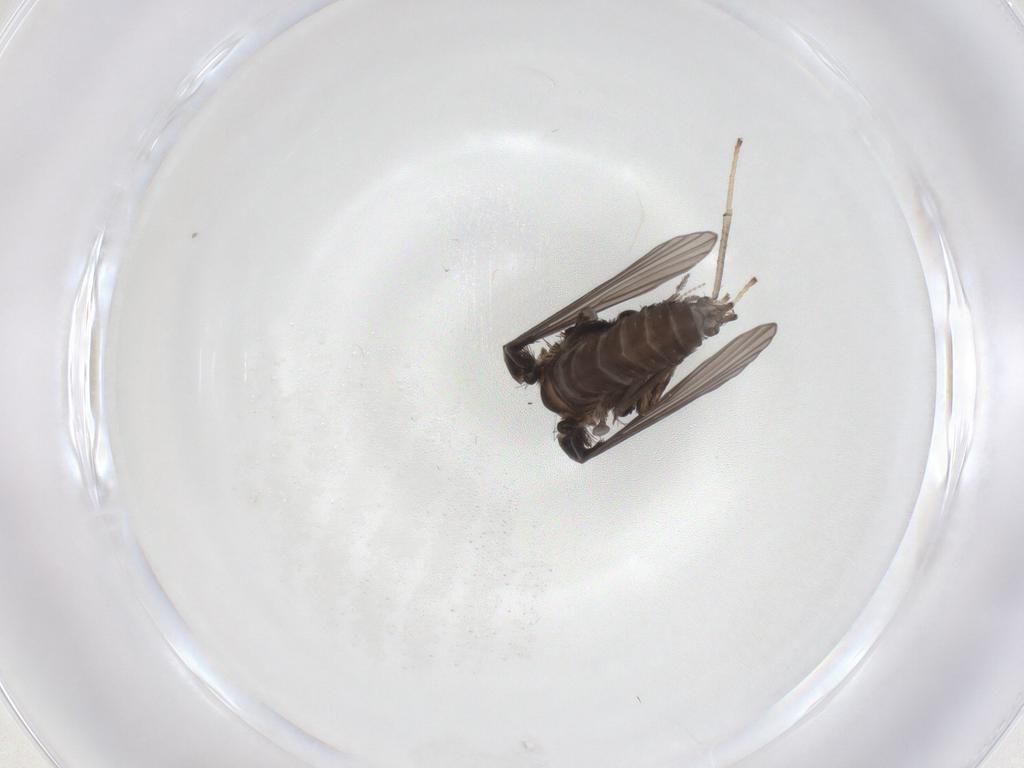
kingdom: Animalia
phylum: Arthropoda
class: Insecta
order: Diptera
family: Psychodidae
